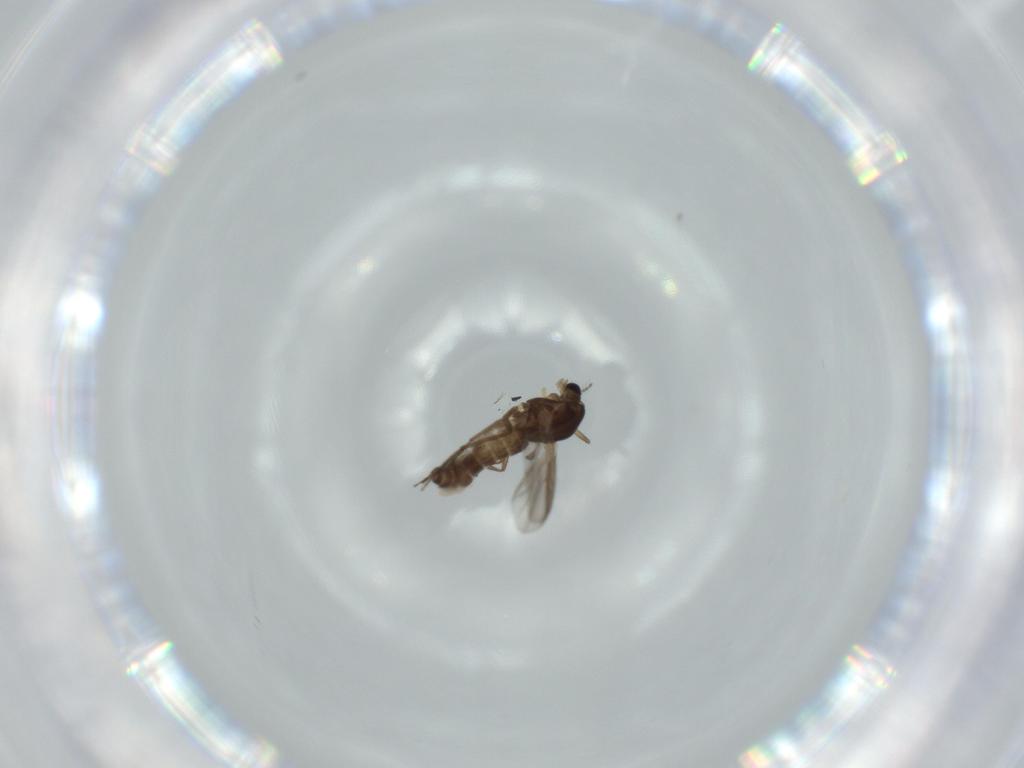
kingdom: Animalia
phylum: Arthropoda
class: Insecta
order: Diptera
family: Chironomidae
